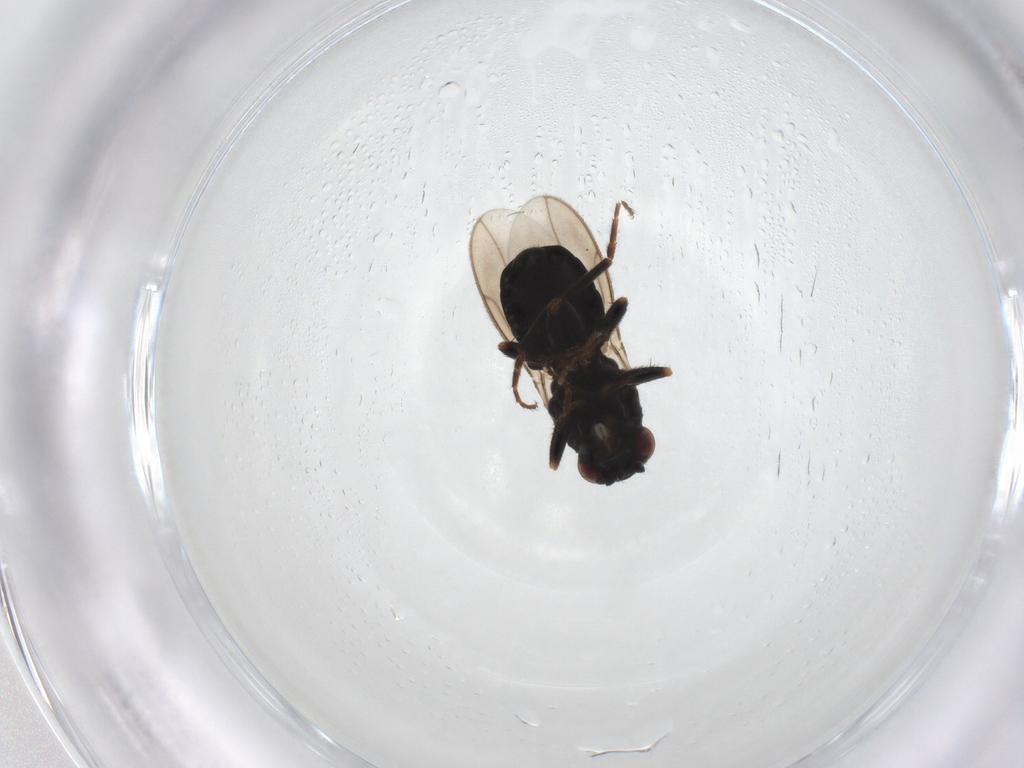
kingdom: Animalia
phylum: Arthropoda
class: Insecta
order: Diptera
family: Sphaeroceridae
